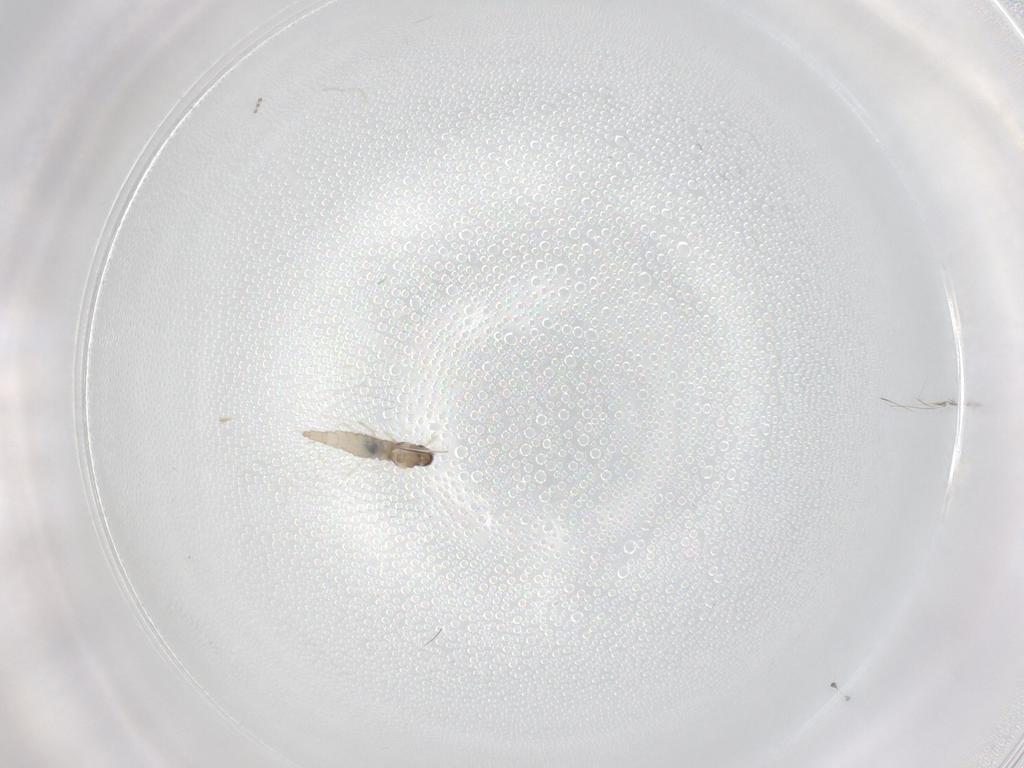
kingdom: Animalia
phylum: Arthropoda
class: Insecta
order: Diptera
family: Cecidomyiidae
